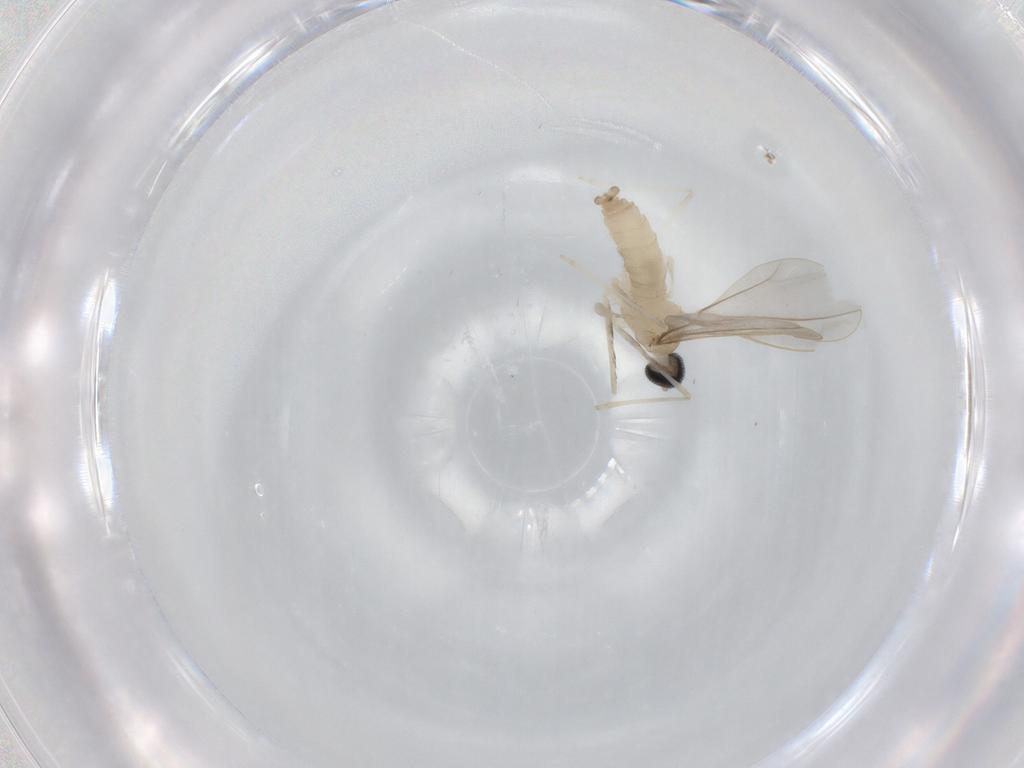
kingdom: Animalia
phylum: Arthropoda
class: Insecta
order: Diptera
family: Cecidomyiidae
